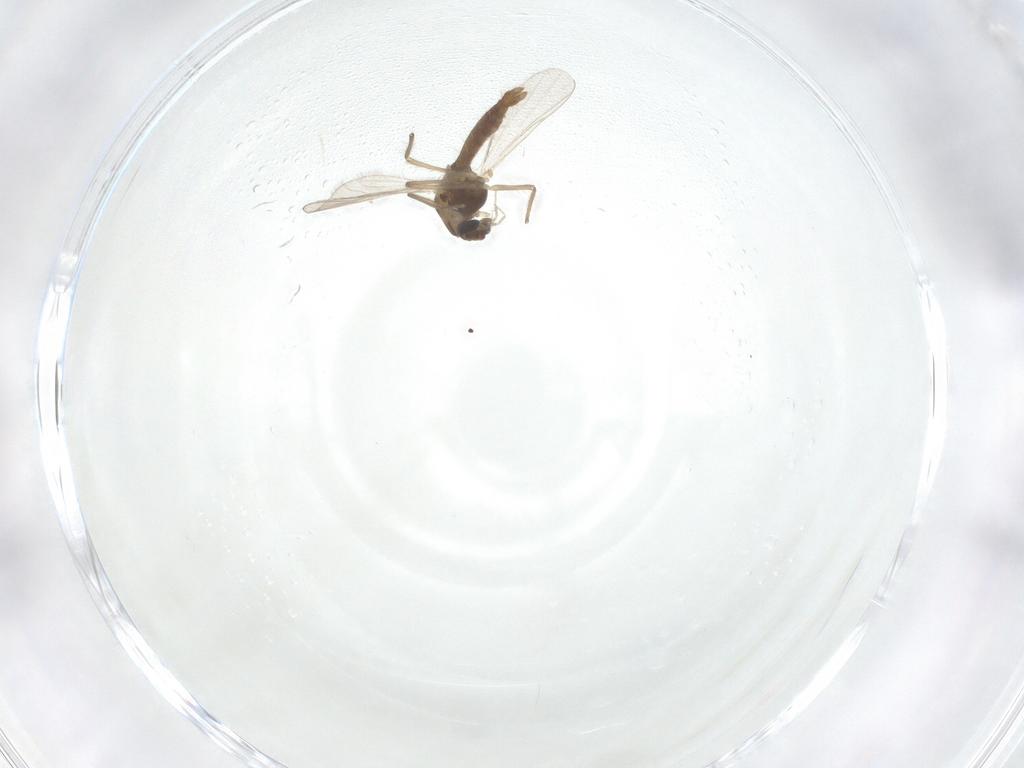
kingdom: Animalia
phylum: Arthropoda
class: Insecta
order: Diptera
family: Chironomidae
